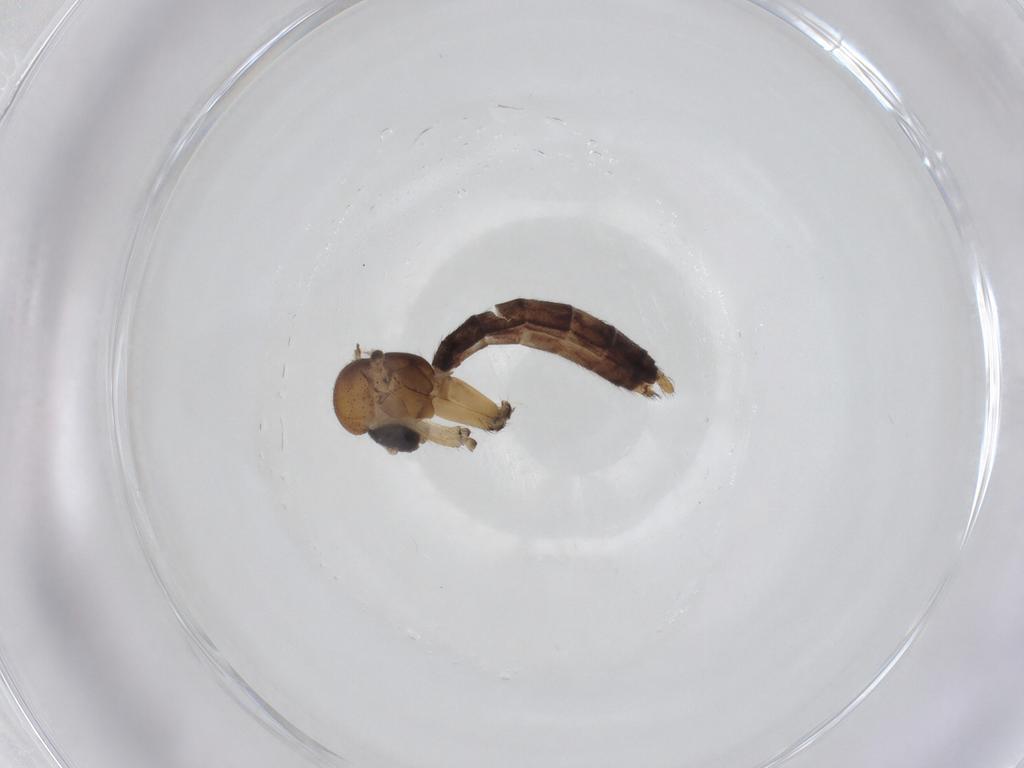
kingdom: Animalia
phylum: Arthropoda
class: Insecta
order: Diptera
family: Mycetophilidae
